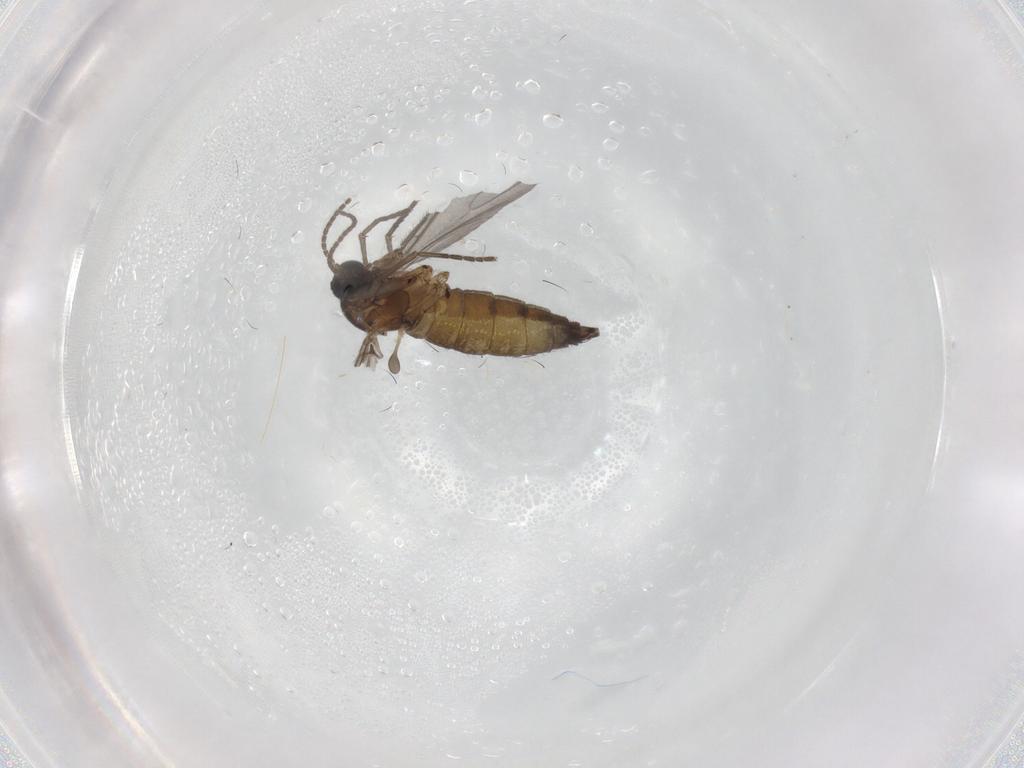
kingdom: Animalia
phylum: Arthropoda
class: Insecta
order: Diptera
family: Sciaridae
